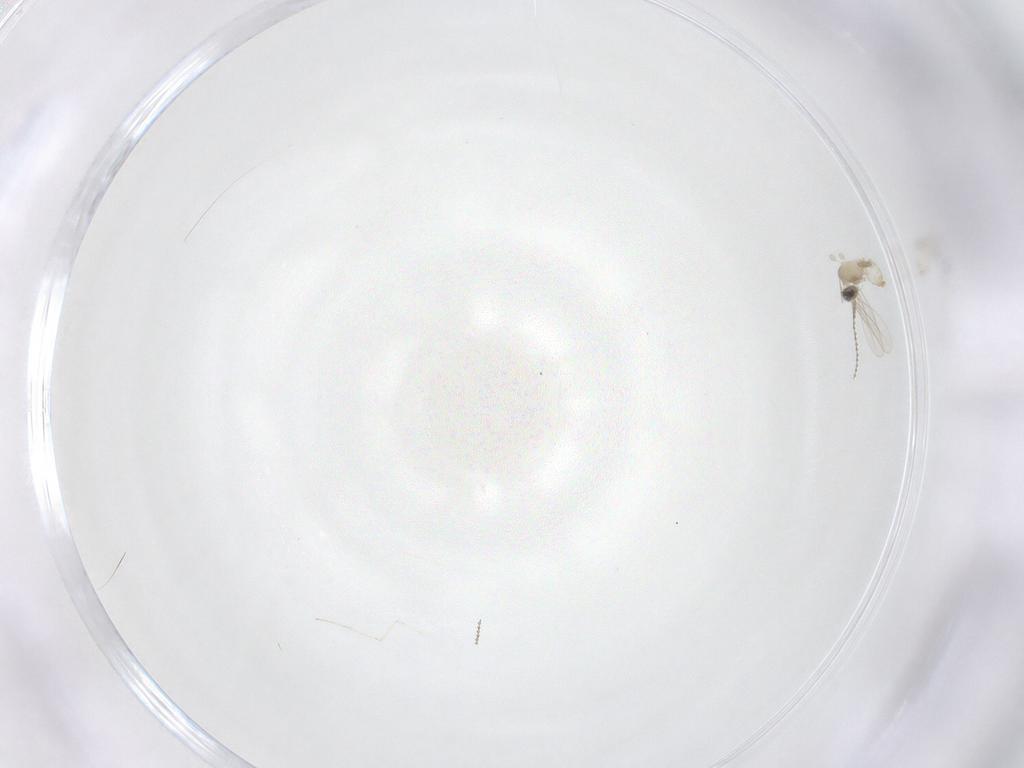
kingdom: Animalia
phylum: Arthropoda
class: Insecta
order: Diptera
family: Cecidomyiidae
